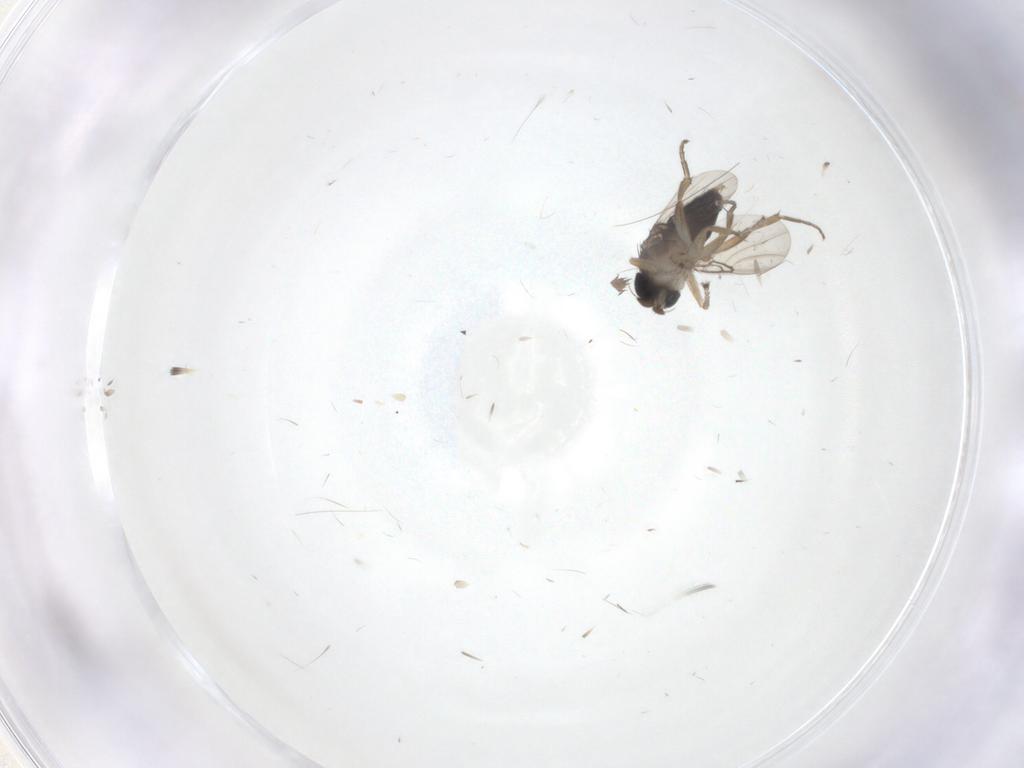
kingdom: Animalia
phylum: Arthropoda
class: Insecta
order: Diptera
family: Phoridae
